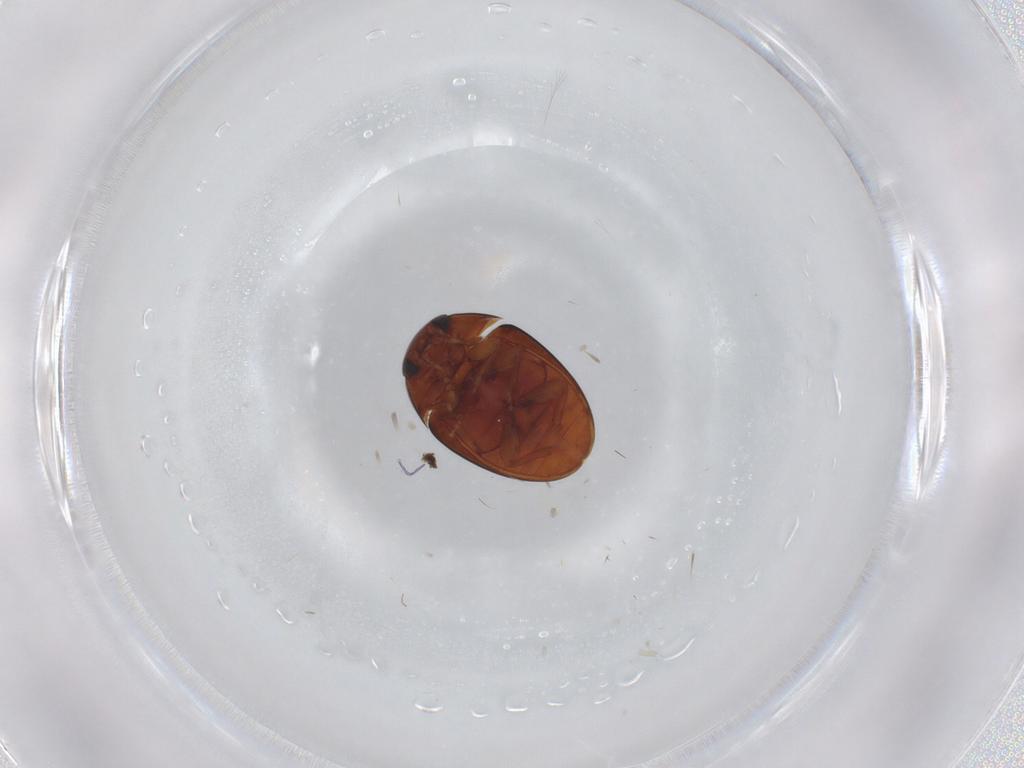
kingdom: Animalia
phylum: Arthropoda
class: Insecta
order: Coleoptera
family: Phalacridae
